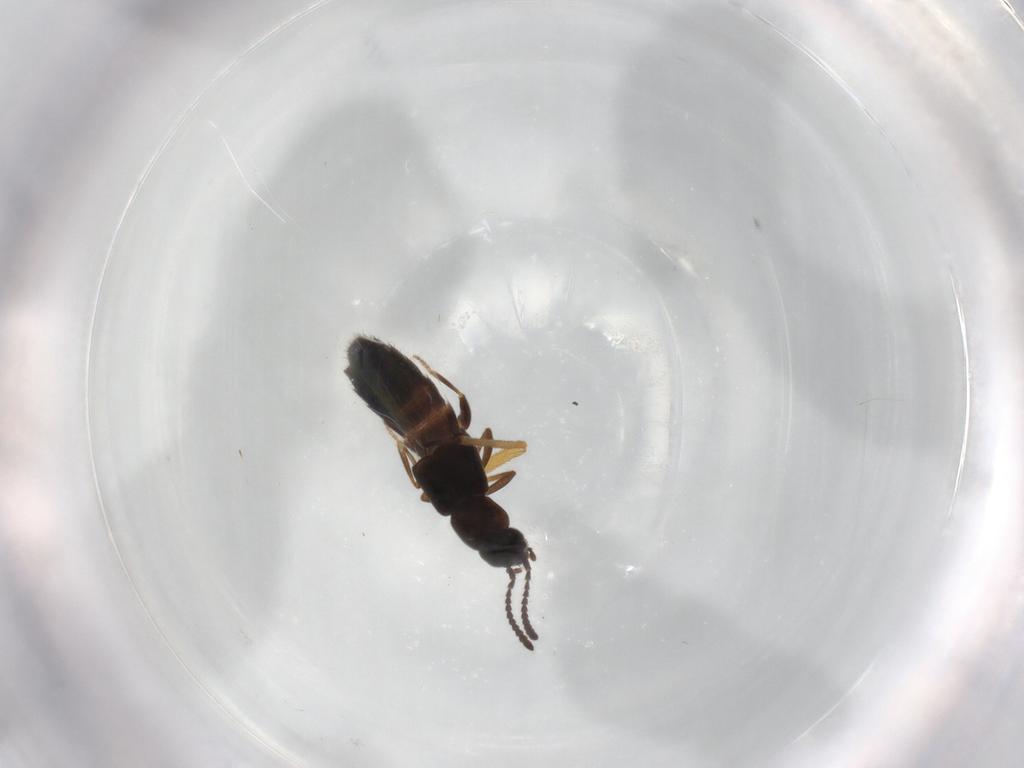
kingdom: Animalia
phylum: Arthropoda
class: Insecta
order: Coleoptera
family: Staphylinidae
